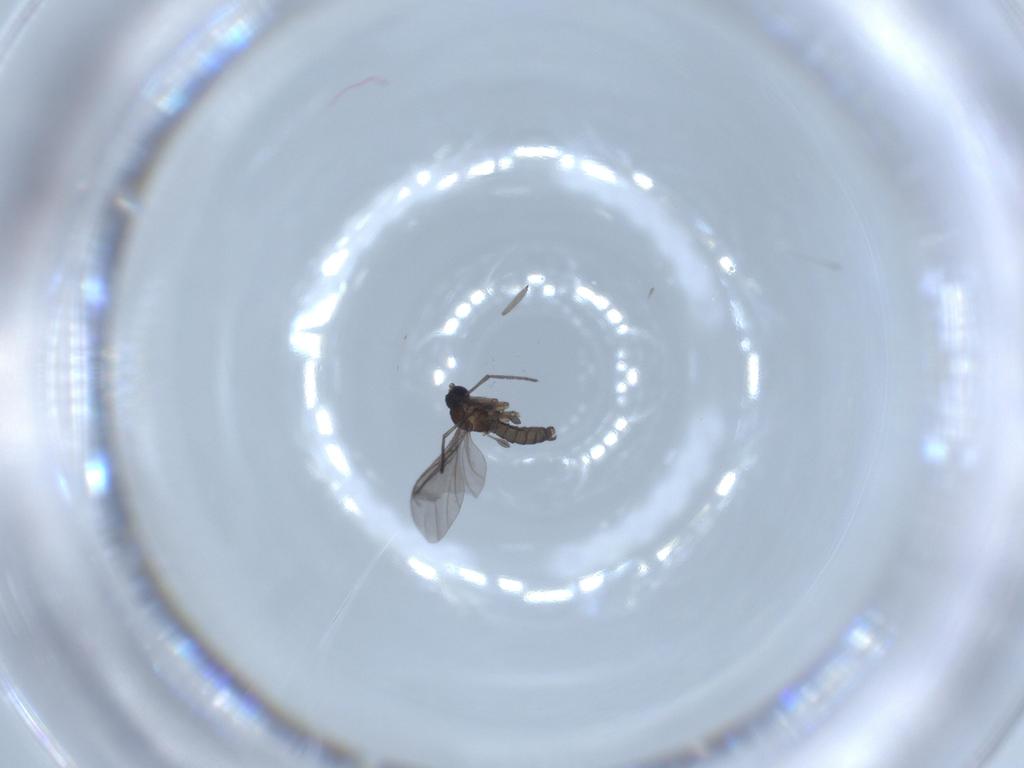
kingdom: Animalia
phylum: Arthropoda
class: Insecta
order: Diptera
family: Sciaridae
